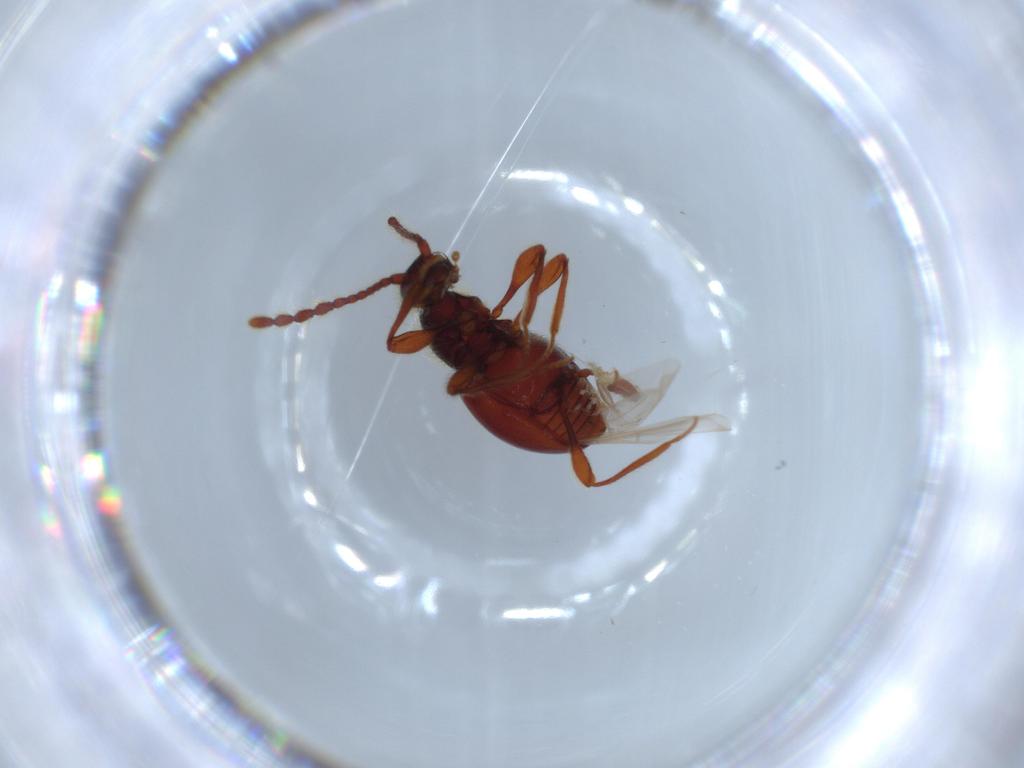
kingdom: Animalia
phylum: Arthropoda
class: Insecta
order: Coleoptera
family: Staphylinidae
